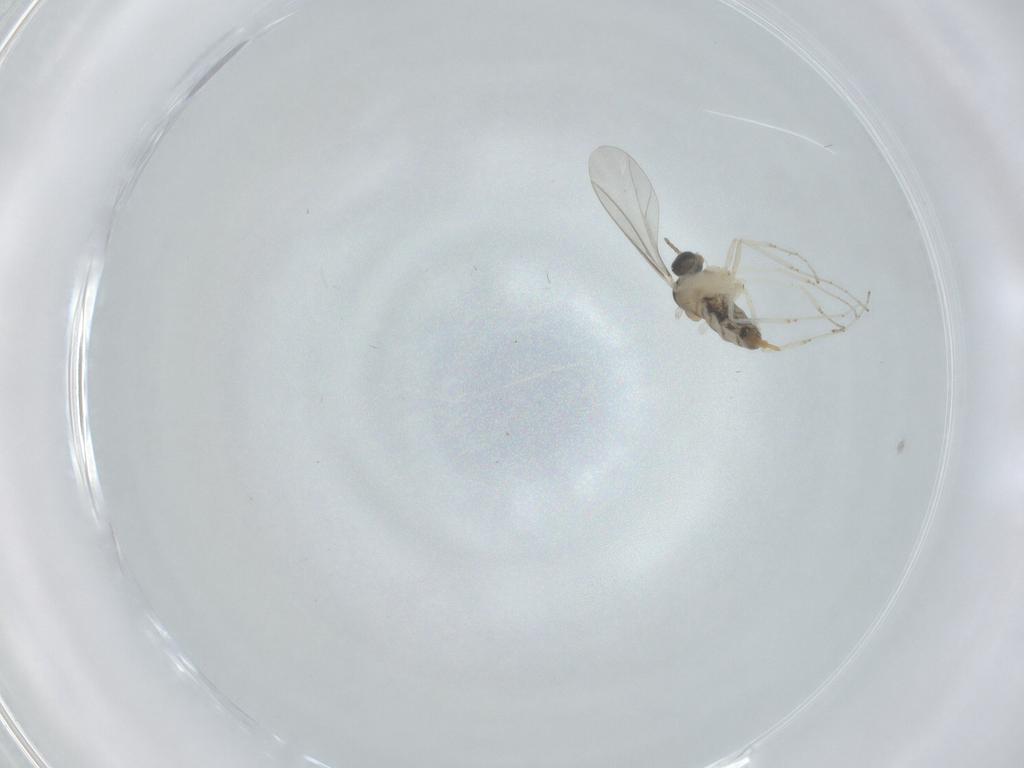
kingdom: Animalia
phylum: Arthropoda
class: Insecta
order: Diptera
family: Cecidomyiidae
